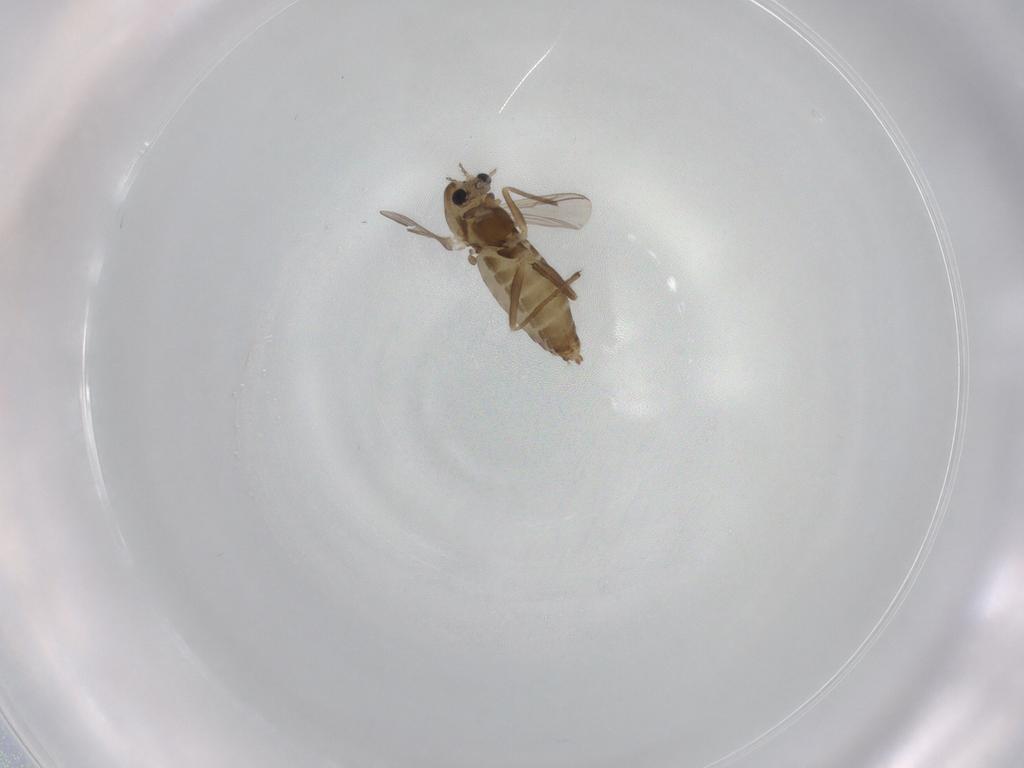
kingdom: Animalia
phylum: Arthropoda
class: Insecta
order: Diptera
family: Chironomidae
